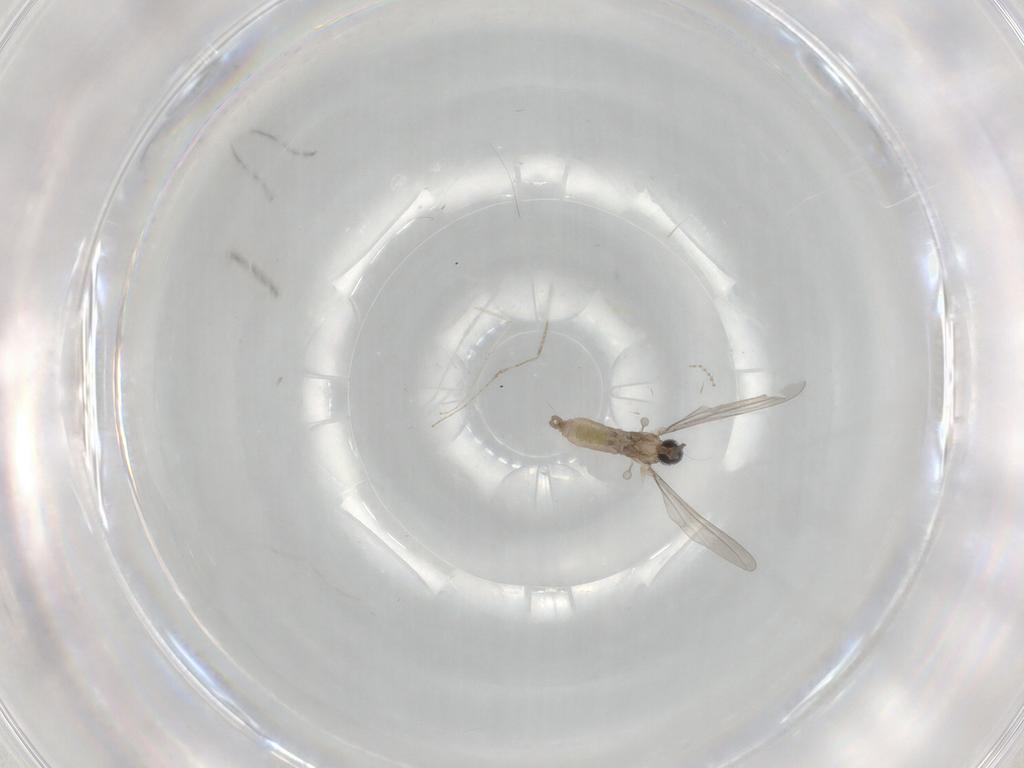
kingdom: Animalia
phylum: Arthropoda
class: Insecta
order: Diptera
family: Cecidomyiidae
